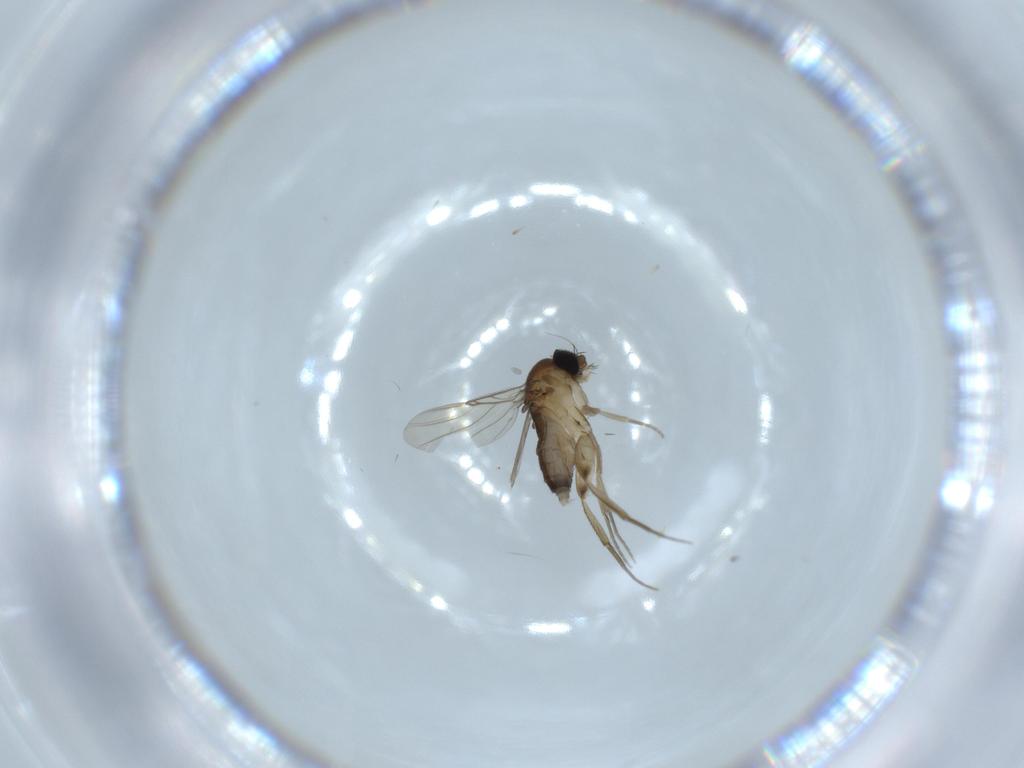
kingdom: Animalia
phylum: Arthropoda
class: Insecta
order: Diptera
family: Phoridae
